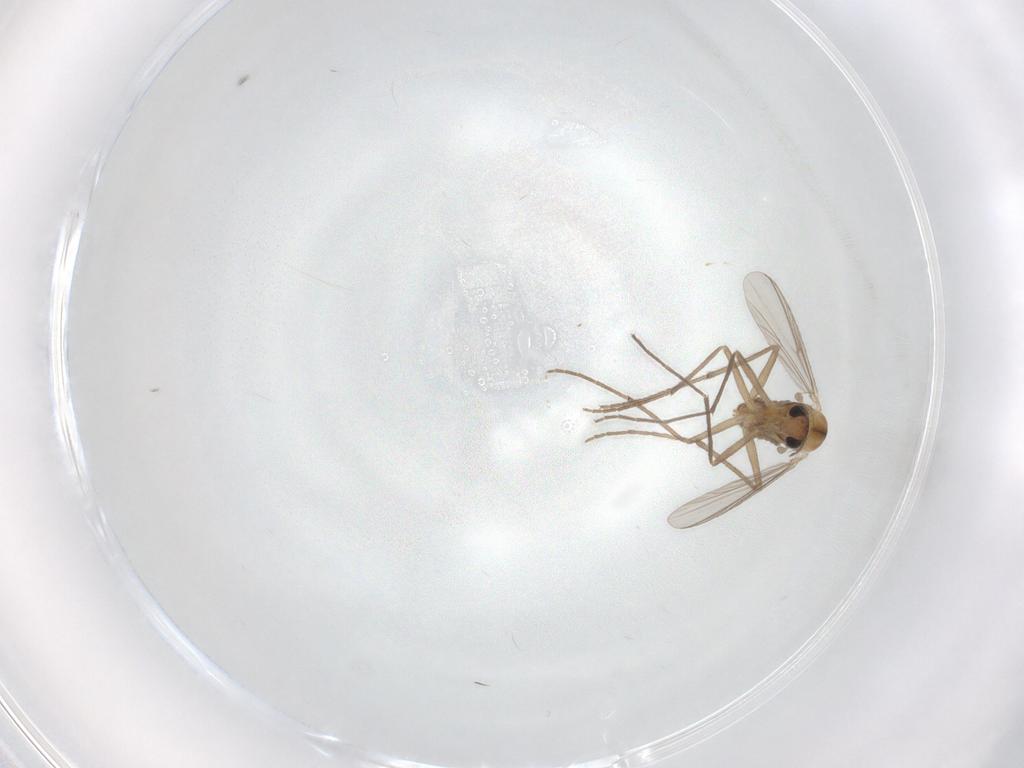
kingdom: Animalia
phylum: Arthropoda
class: Insecta
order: Diptera
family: Chironomidae
